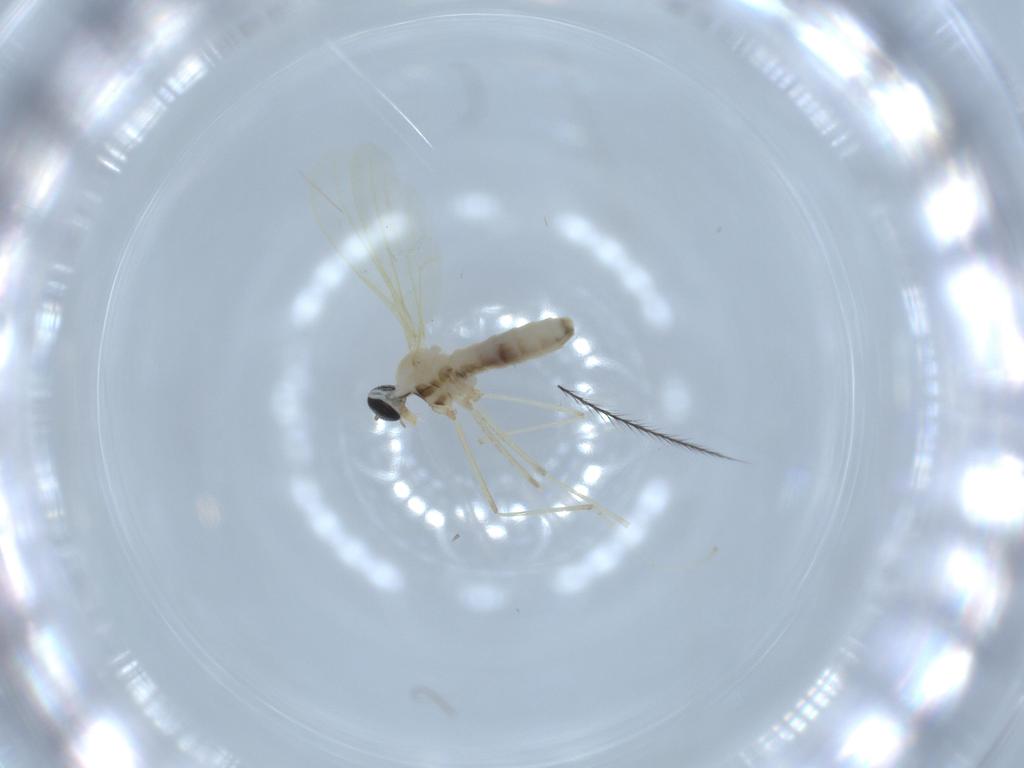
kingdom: Animalia
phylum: Arthropoda
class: Insecta
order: Diptera
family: Cecidomyiidae
